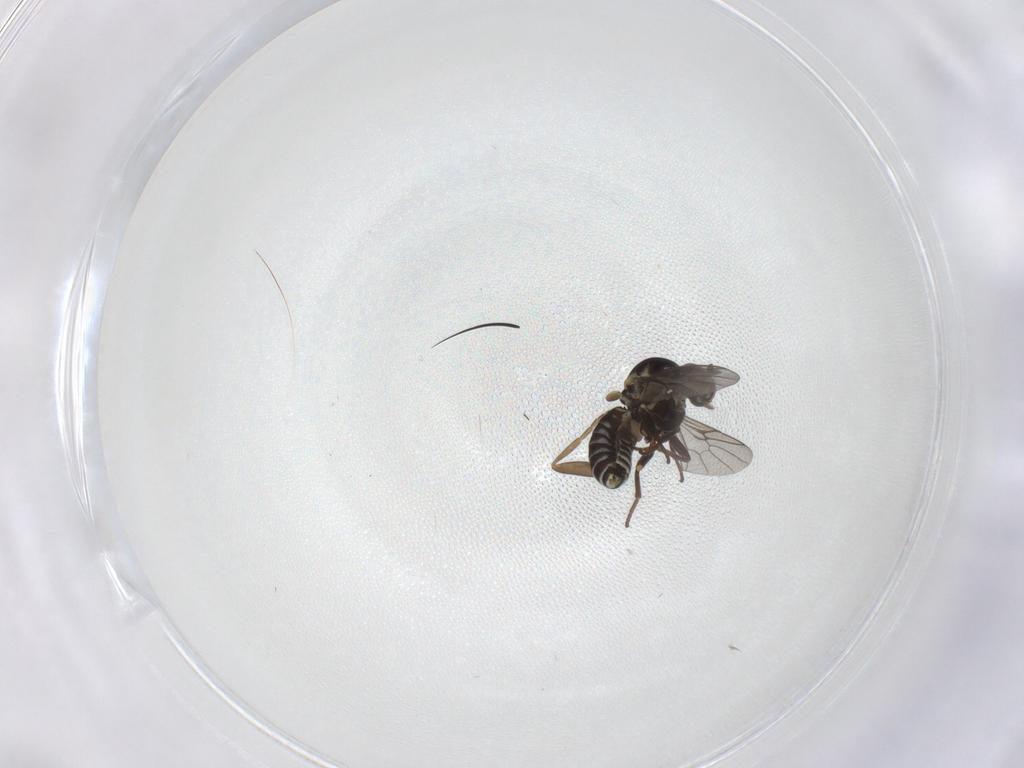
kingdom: Animalia
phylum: Arthropoda
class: Insecta
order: Diptera
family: Bombyliidae
